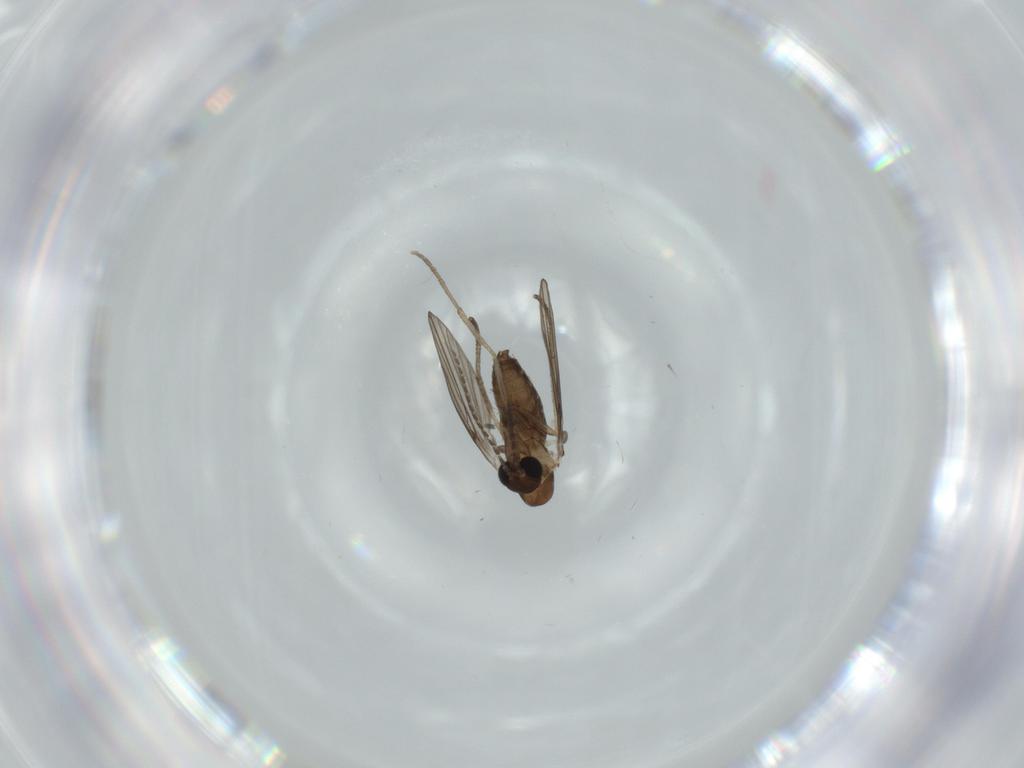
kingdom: Animalia
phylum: Arthropoda
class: Insecta
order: Diptera
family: Psychodidae
